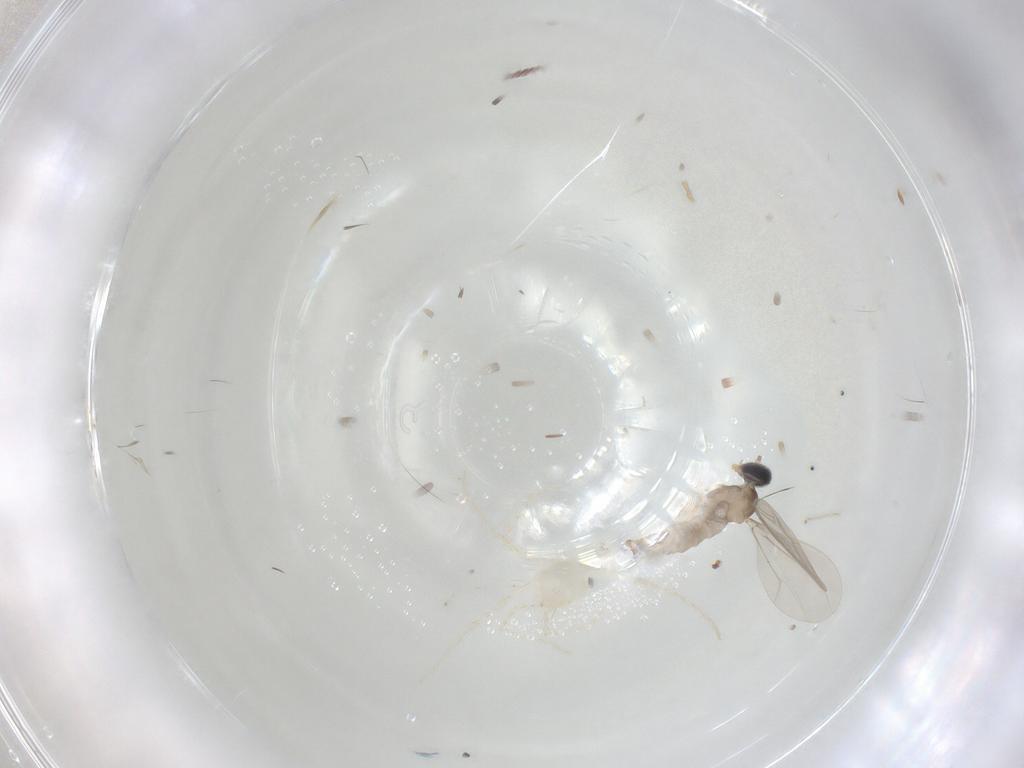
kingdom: Animalia
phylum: Arthropoda
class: Insecta
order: Diptera
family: Cecidomyiidae
